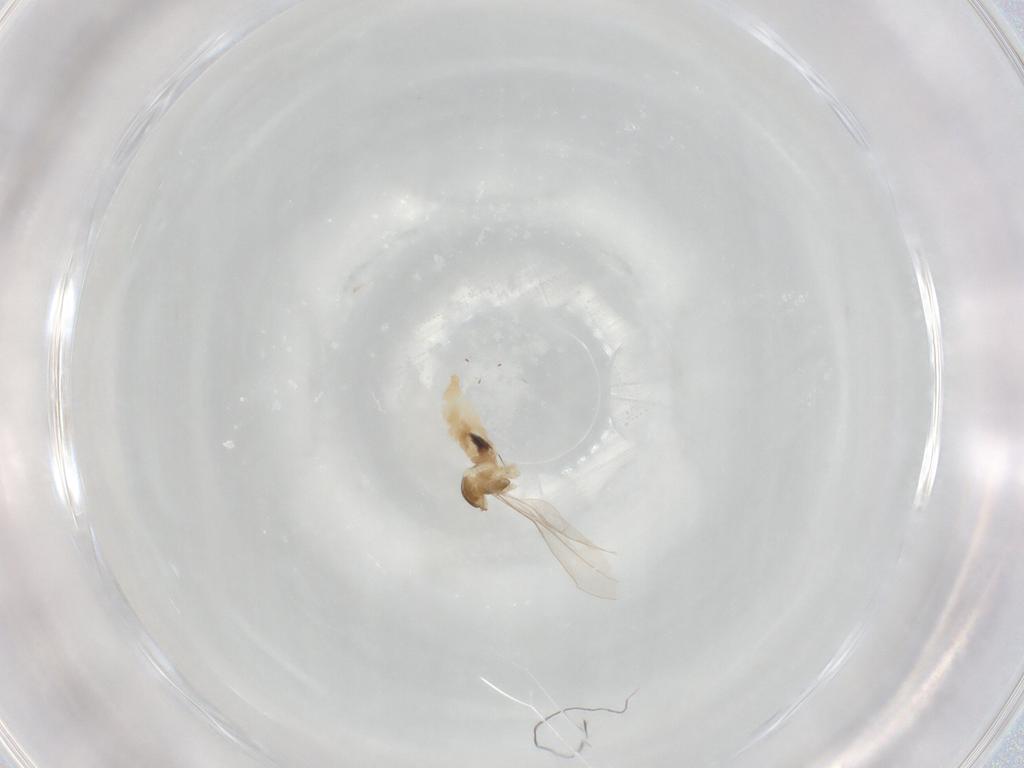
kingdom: Animalia
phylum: Arthropoda
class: Insecta
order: Diptera
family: Cecidomyiidae
